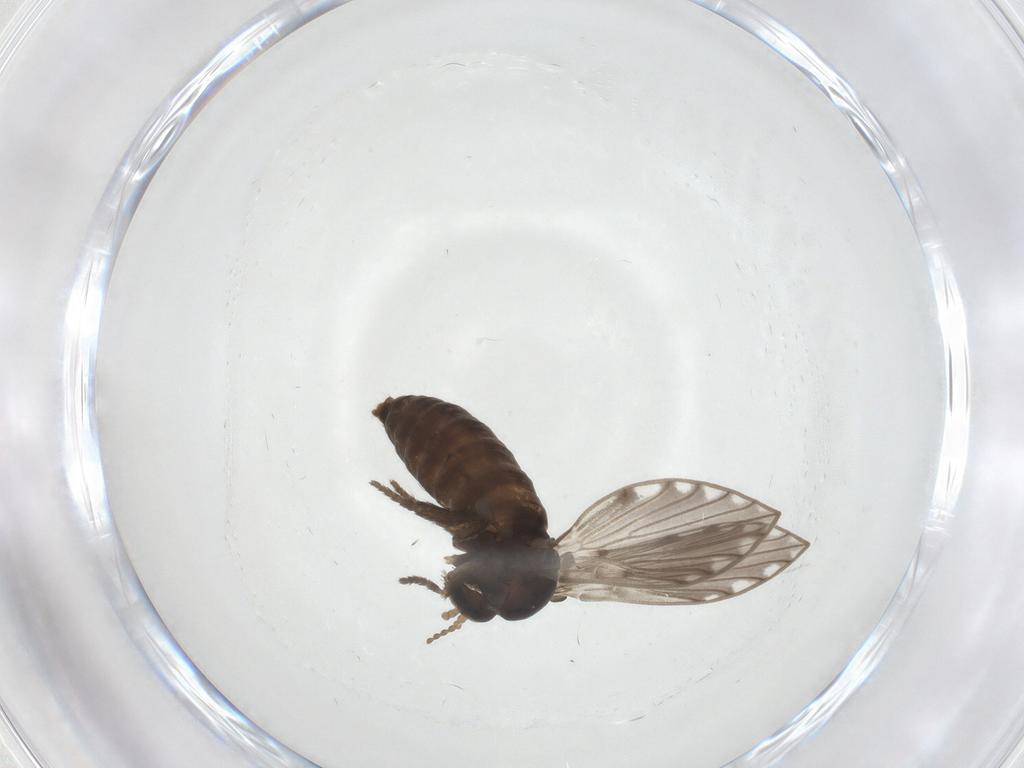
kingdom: Animalia
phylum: Arthropoda
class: Insecta
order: Diptera
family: Psychodidae
